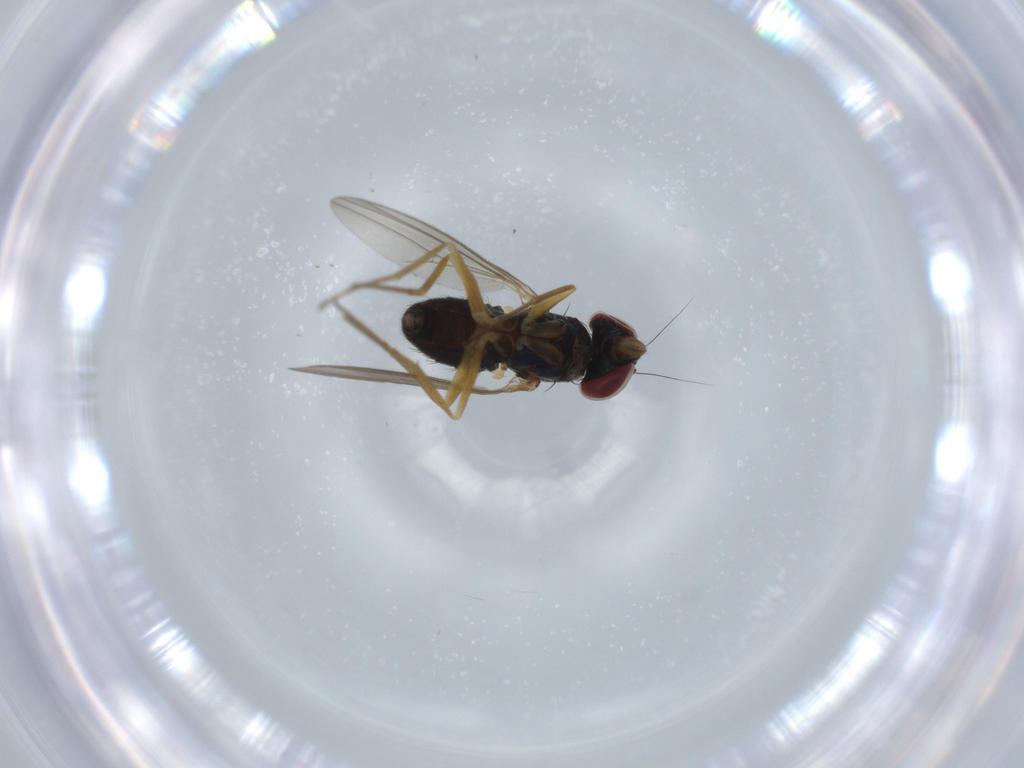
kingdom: Animalia
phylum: Arthropoda
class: Insecta
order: Diptera
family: Dolichopodidae
